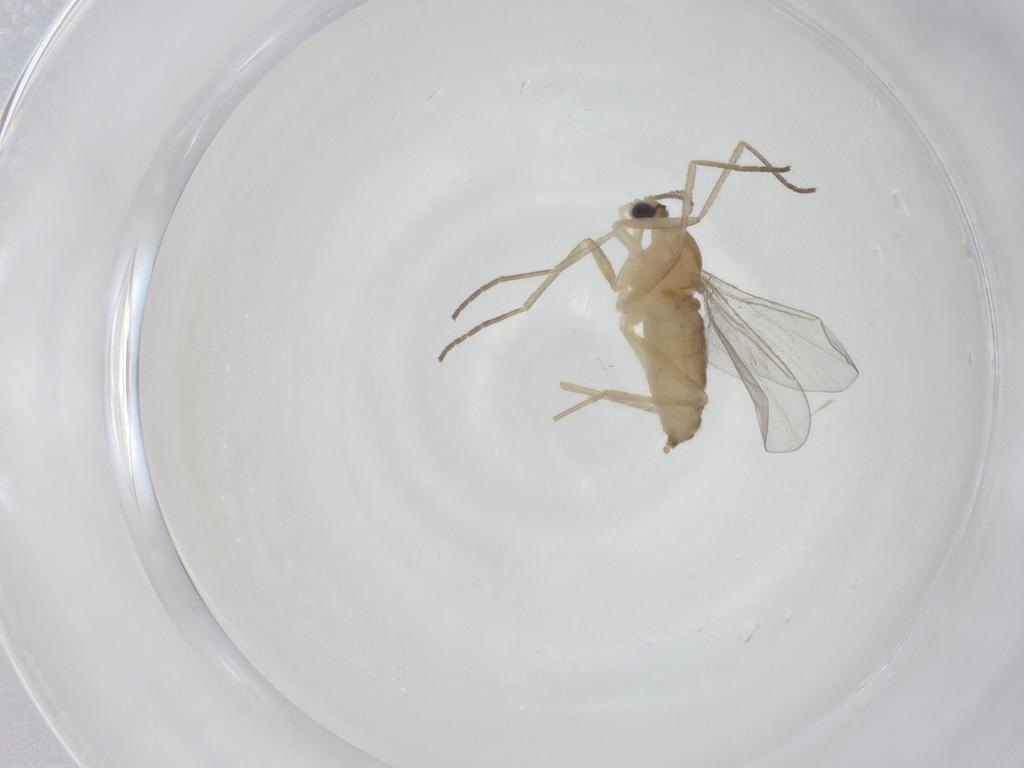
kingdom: Animalia
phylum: Arthropoda
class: Insecta
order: Diptera
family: Cecidomyiidae
